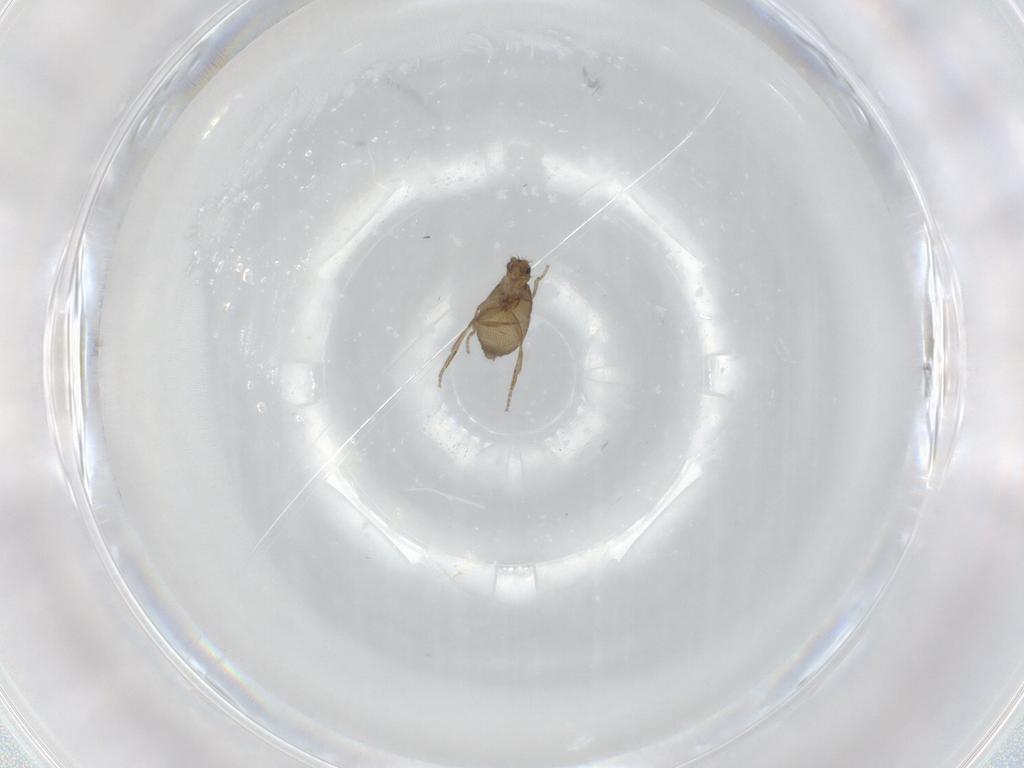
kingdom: Animalia
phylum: Arthropoda
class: Insecta
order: Diptera
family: Phoridae
